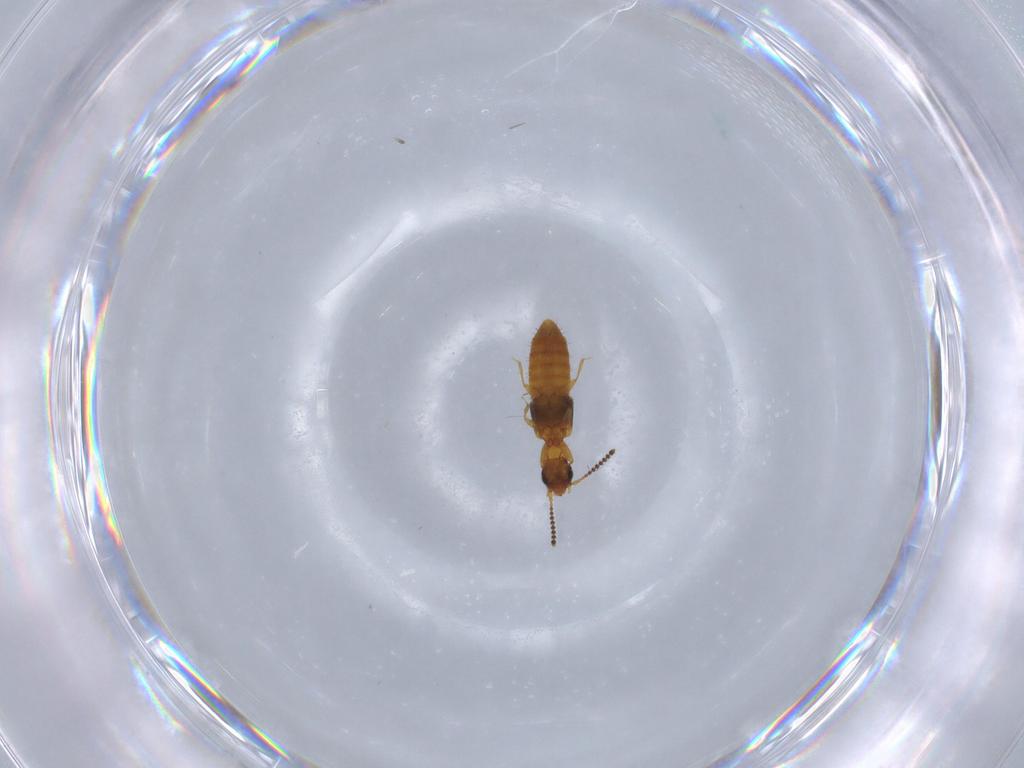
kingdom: Animalia
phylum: Arthropoda
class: Insecta
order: Coleoptera
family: Staphylinidae
